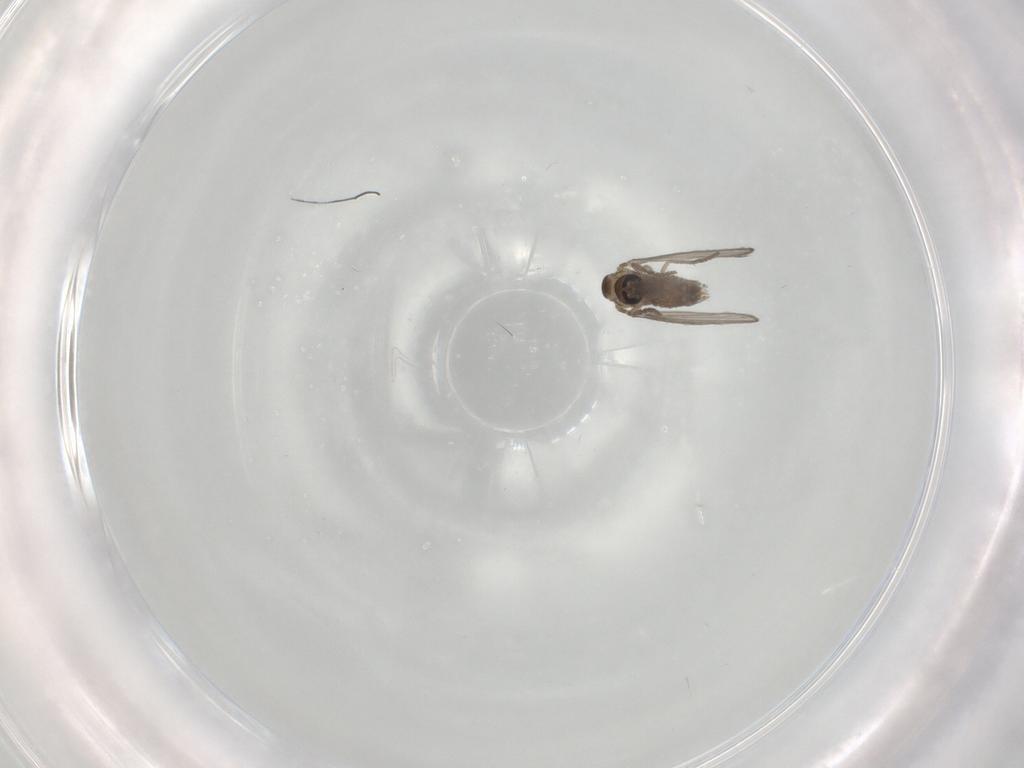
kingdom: Animalia
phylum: Arthropoda
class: Insecta
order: Diptera
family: Psychodidae
